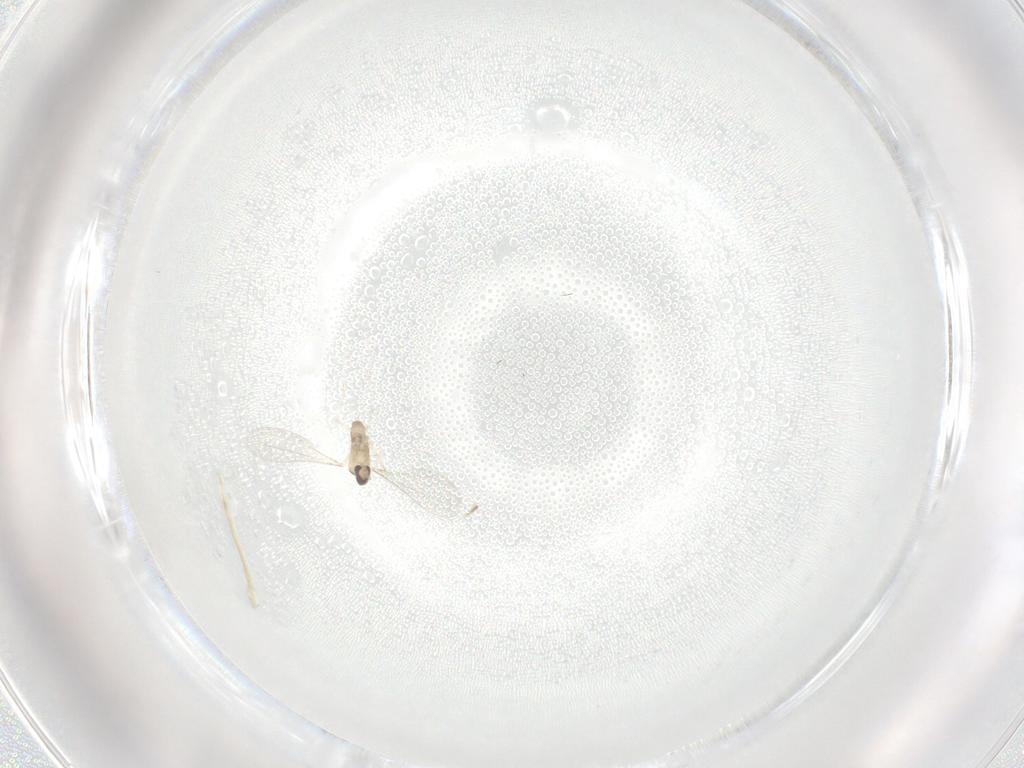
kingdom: Animalia
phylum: Arthropoda
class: Insecta
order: Diptera
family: Cecidomyiidae
